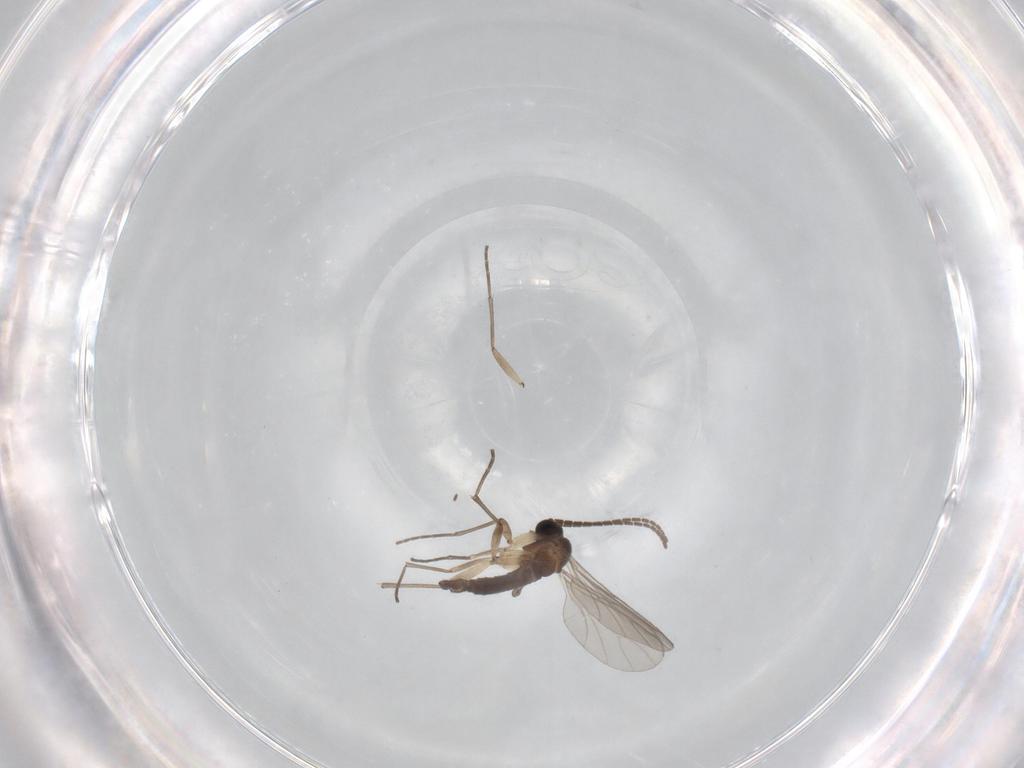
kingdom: Animalia
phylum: Arthropoda
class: Insecta
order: Diptera
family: Sciaridae
